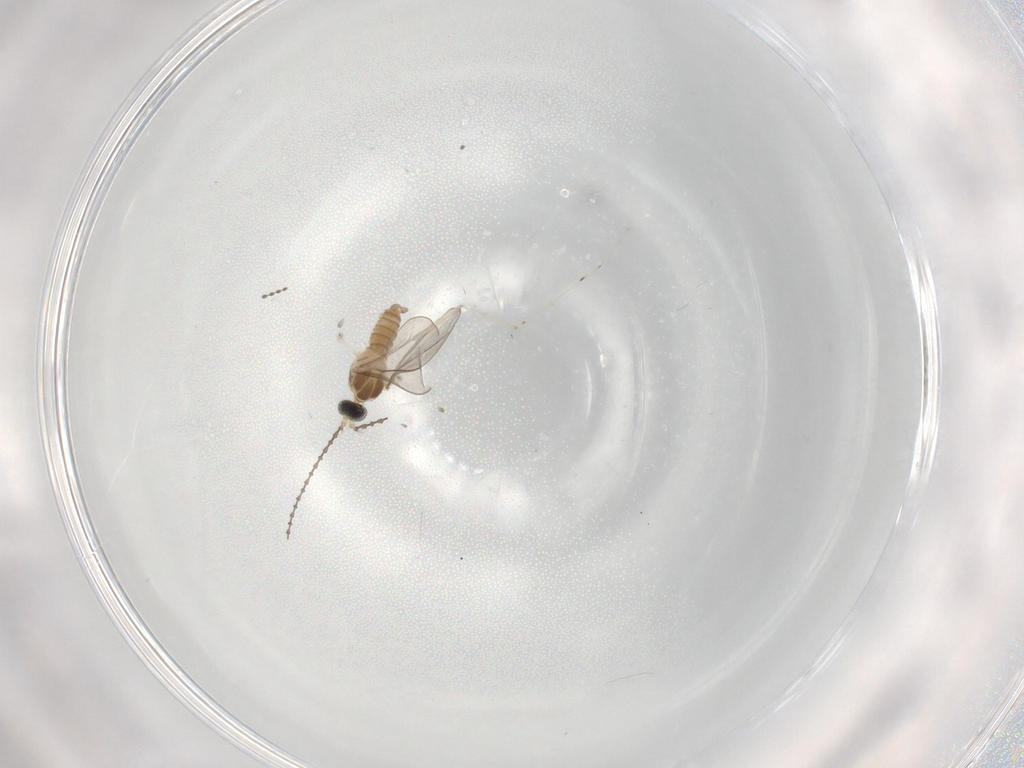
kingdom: Animalia
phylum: Arthropoda
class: Insecta
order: Diptera
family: Cecidomyiidae
